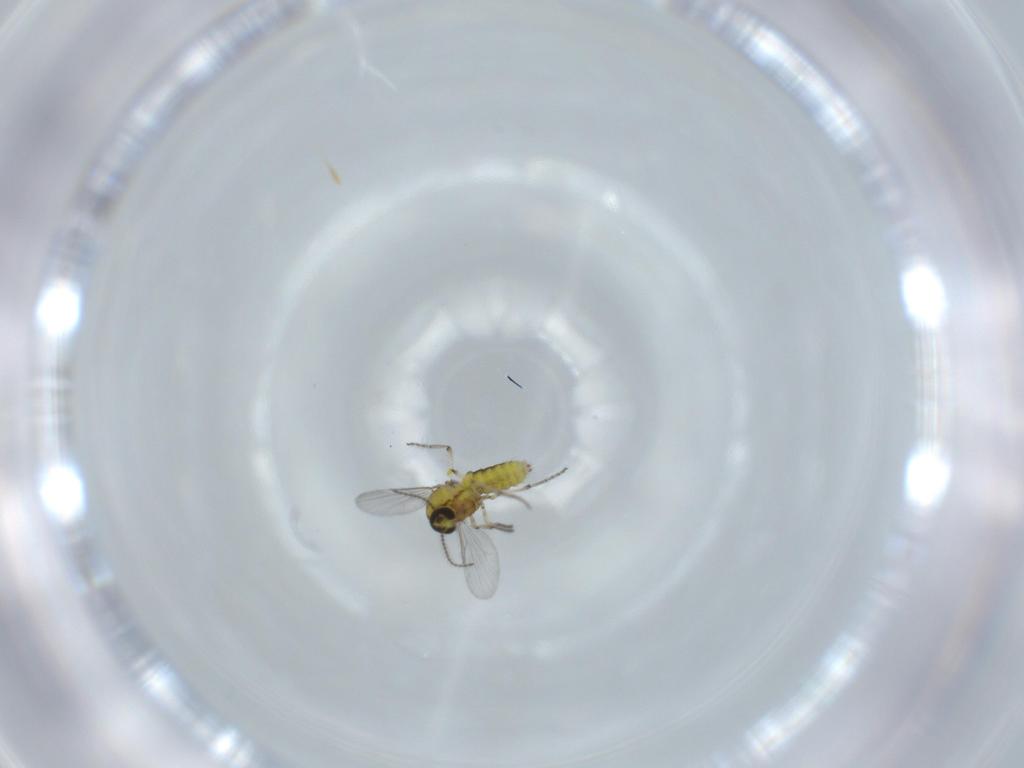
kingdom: Animalia
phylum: Arthropoda
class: Insecta
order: Diptera
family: Ceratopogonidae
